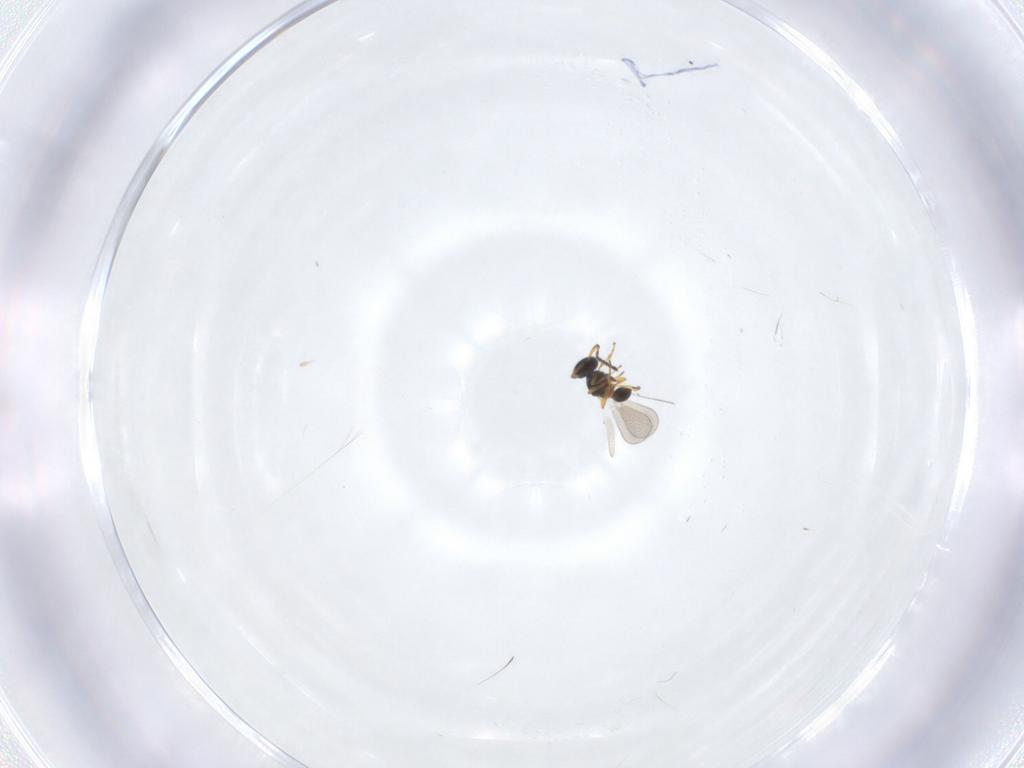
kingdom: Animalia
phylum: Arthropoda
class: Insecta
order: Hymenoptera
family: Platygastridae
